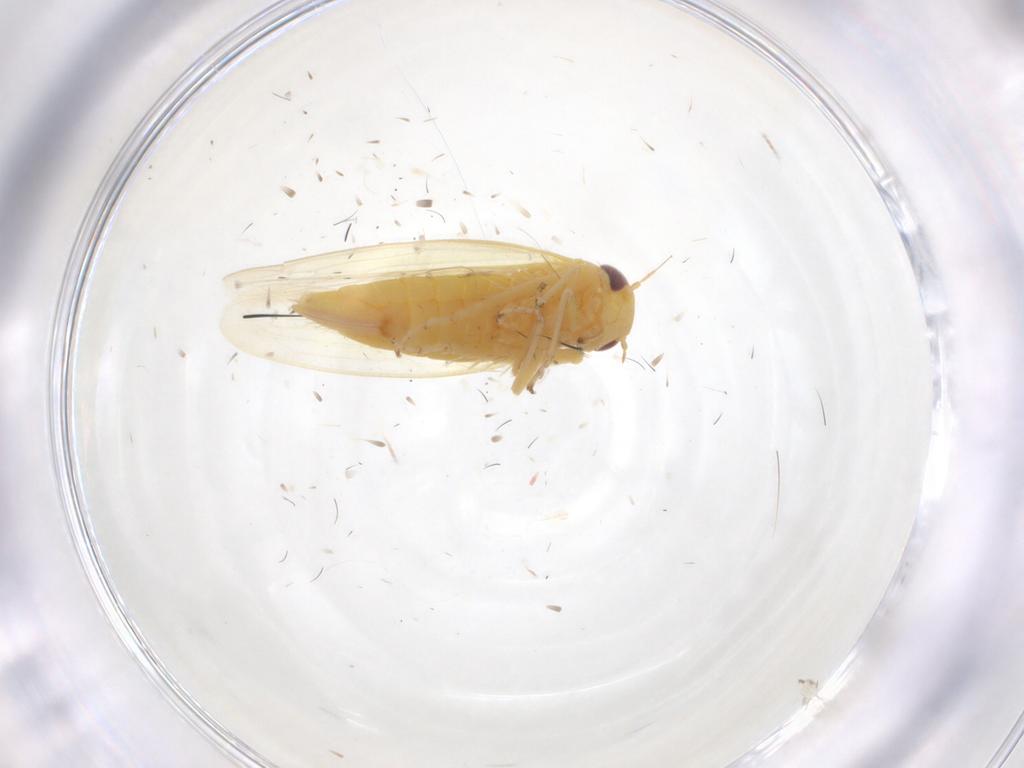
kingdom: Animalia
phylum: Arthropoda
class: Insecta
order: Hemiptera
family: Cicadellidae
